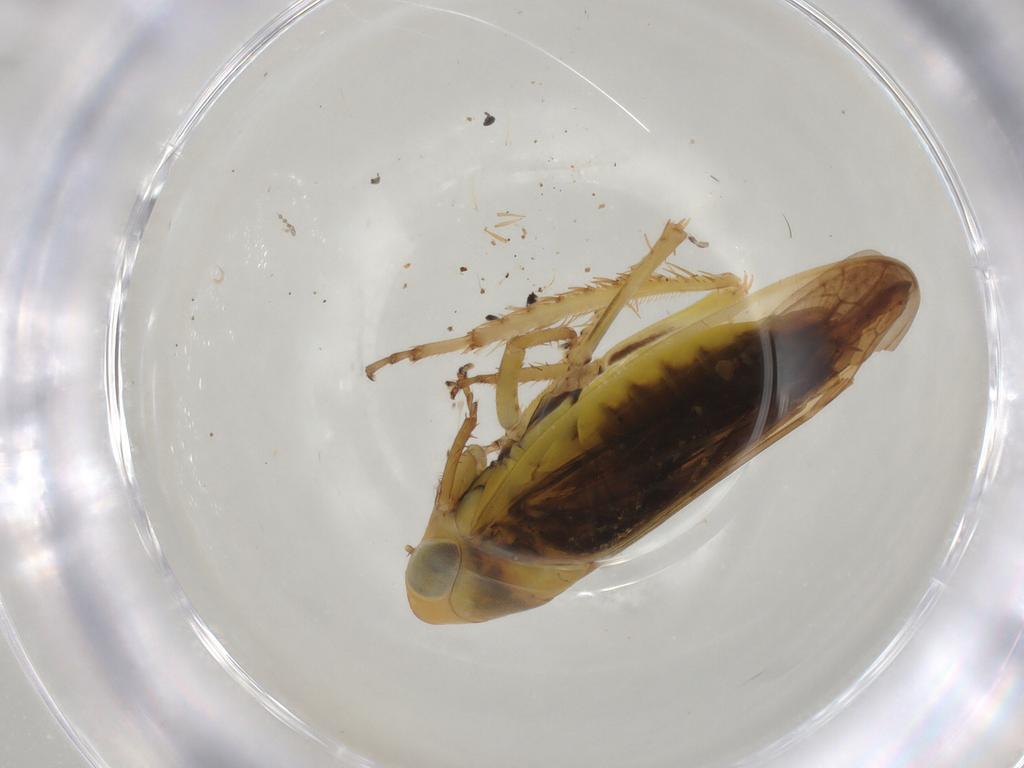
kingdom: Animalia
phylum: Arthropoda
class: Insecta
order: Hemiptera
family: Cicadellidae
